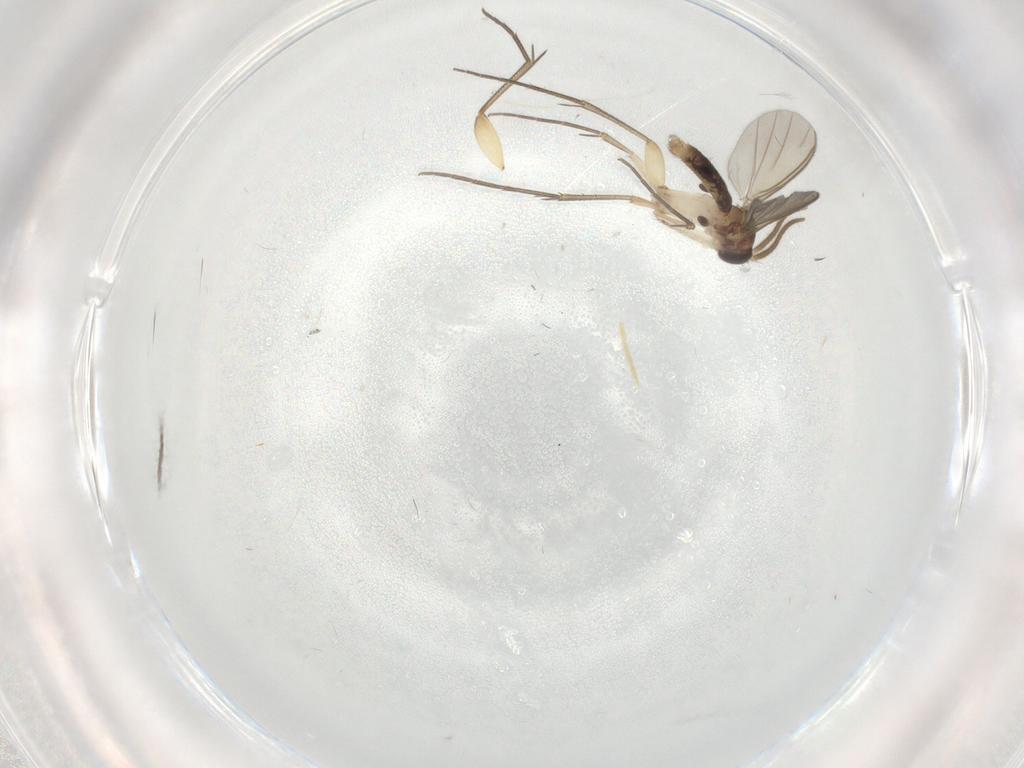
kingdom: Animalia
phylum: Arthropoda
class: Insecta
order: Diptera
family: Mycetophilidae
